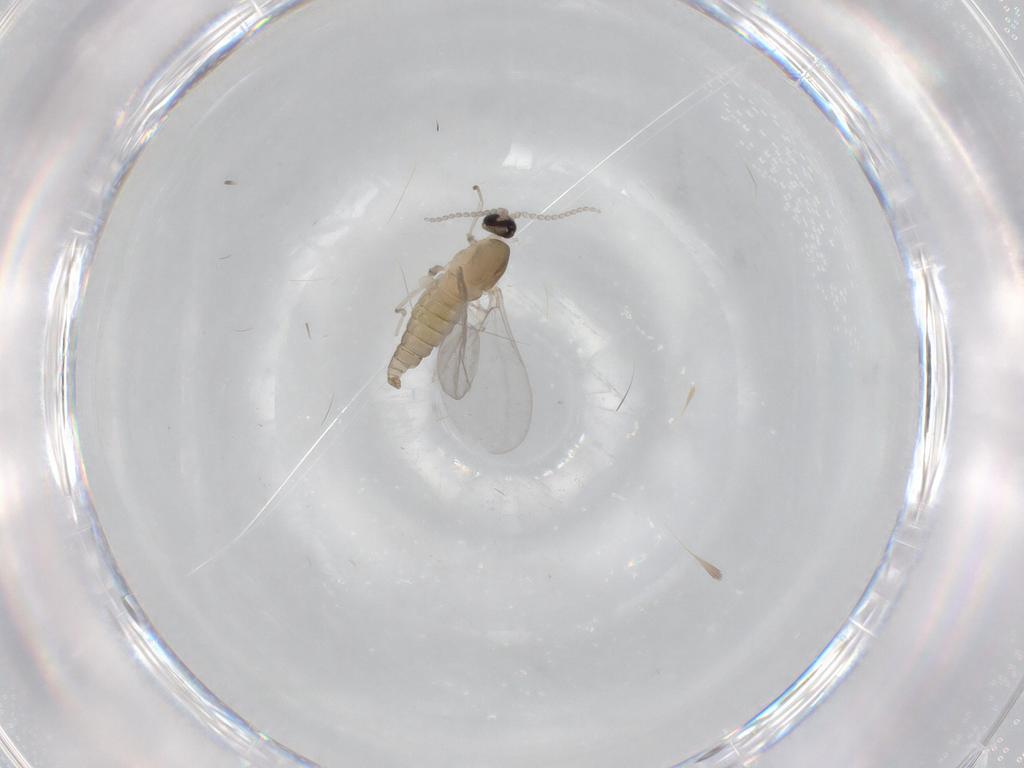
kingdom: Animalia
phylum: Arthropoda
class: Insecta
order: Diptera
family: Cecidomyiidae
